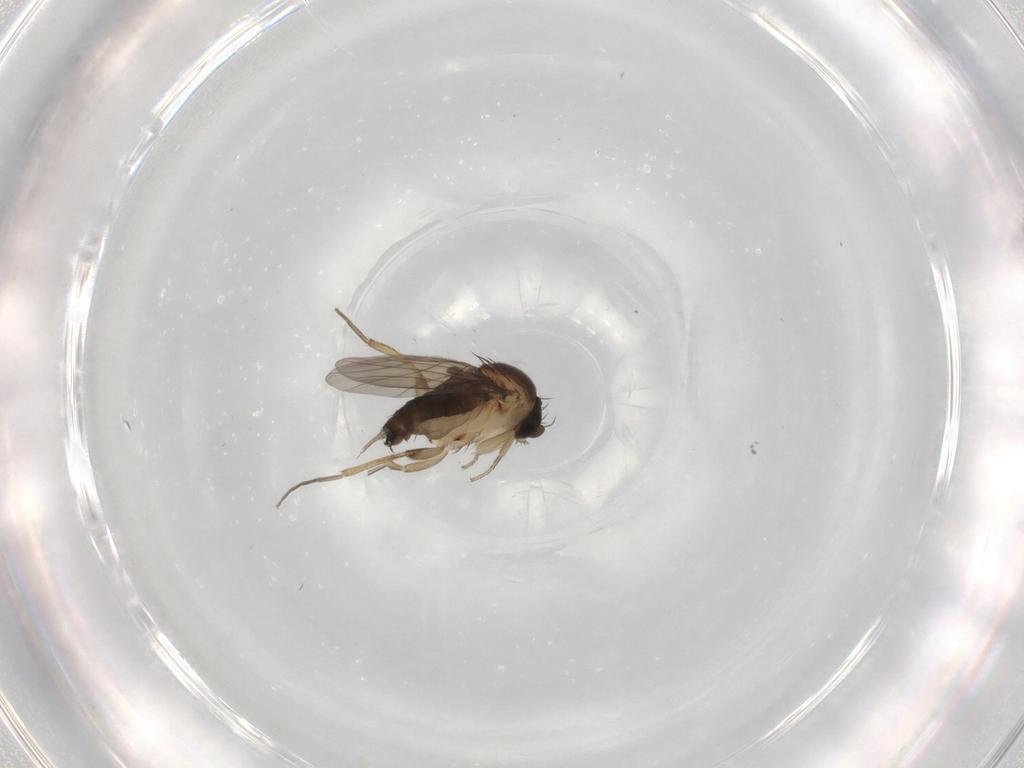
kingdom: Animalia
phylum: Arthropoda
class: Insecta
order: Diptera
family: Phoridae
